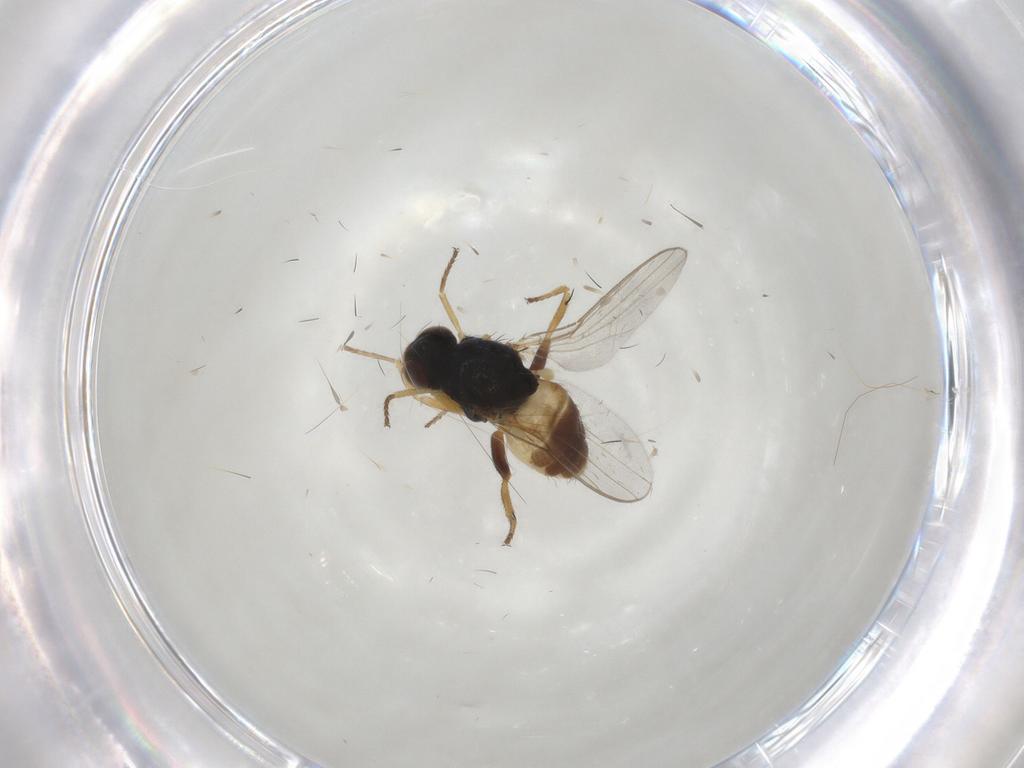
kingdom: Animalia
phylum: Arthropoda
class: Insecta
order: Diptera
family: Chloropidae
